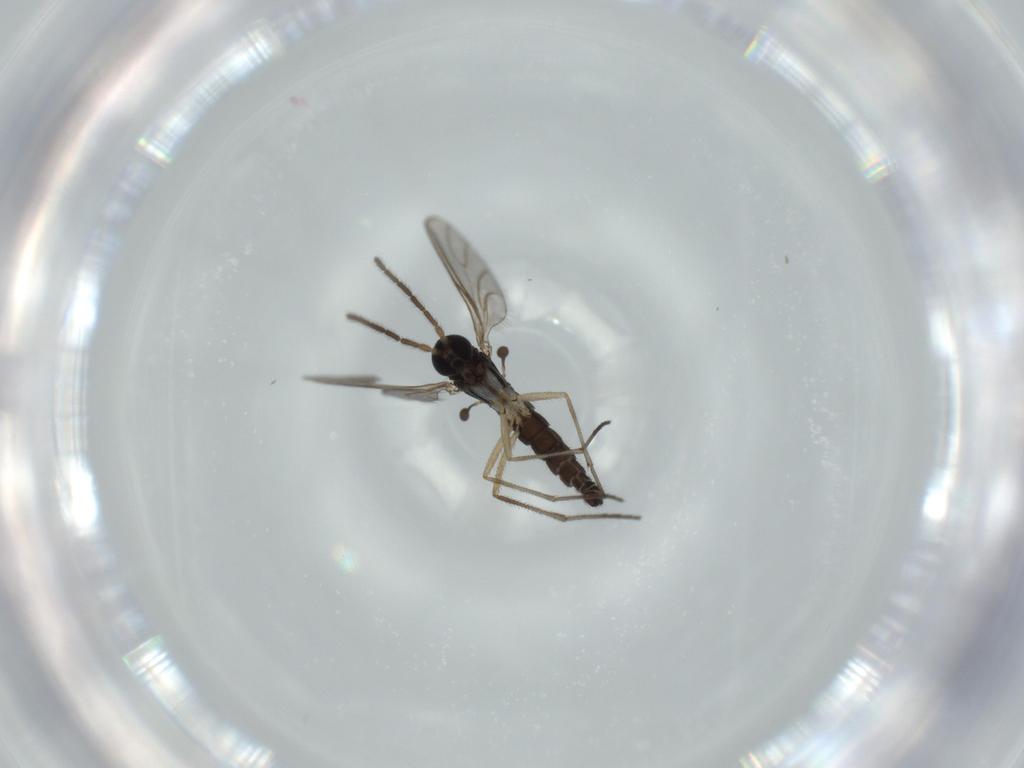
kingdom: Animalia
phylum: Arthropoda
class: Insecta
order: Diptera
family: Sciaridae
